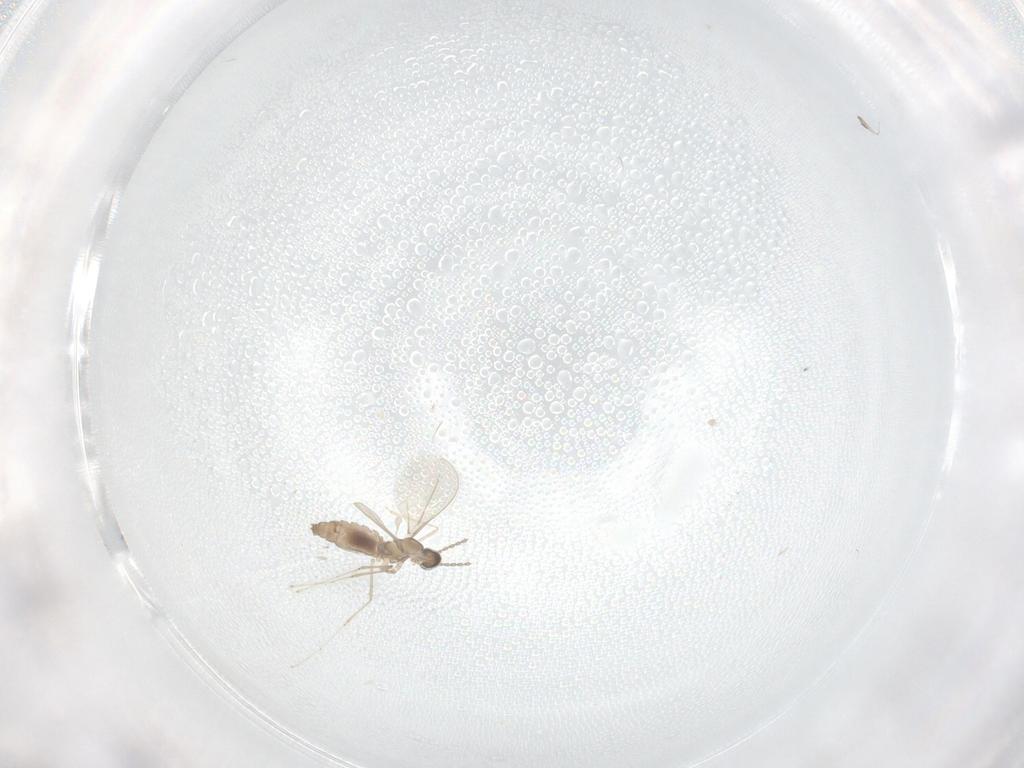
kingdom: Animalia
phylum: Arthropoda
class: Insecta
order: Diptera
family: Cecidomyiidae
